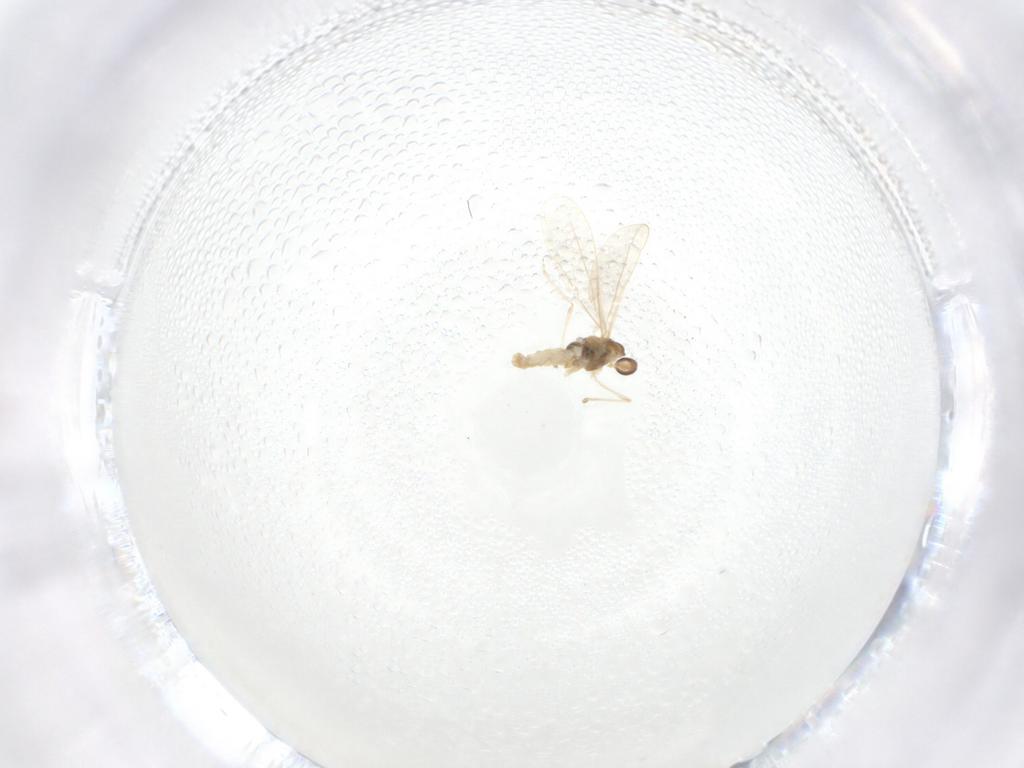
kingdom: Animalia
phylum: Arthropoda
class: Insecta
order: Diptera
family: Cecidomyiidae
